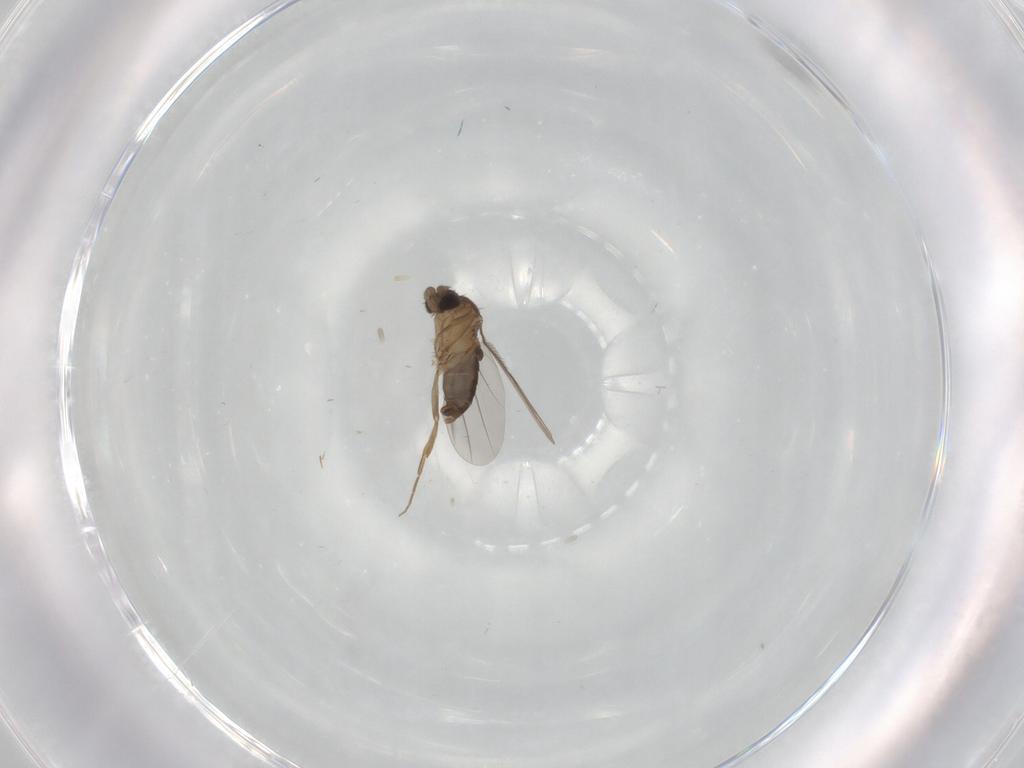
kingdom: Animalia
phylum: Arthropoda
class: Insecta
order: Diptera
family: Phoridae
